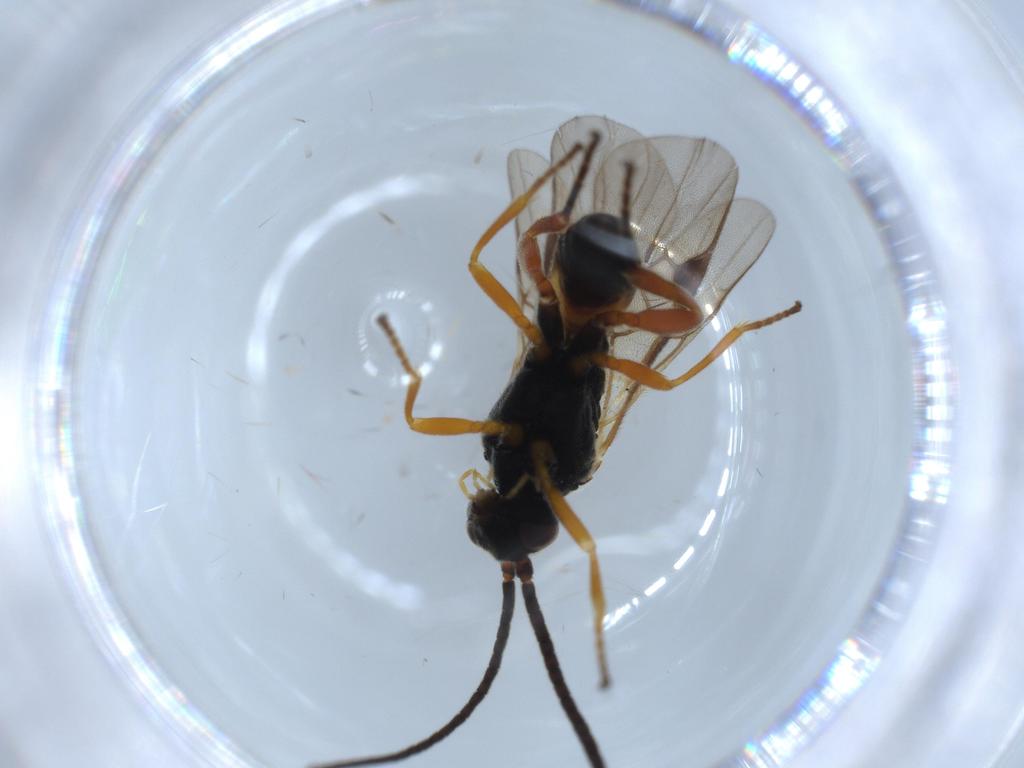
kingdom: Animalia
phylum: Arthropoda
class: Insecta
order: Hymenoptera
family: Braconidae
